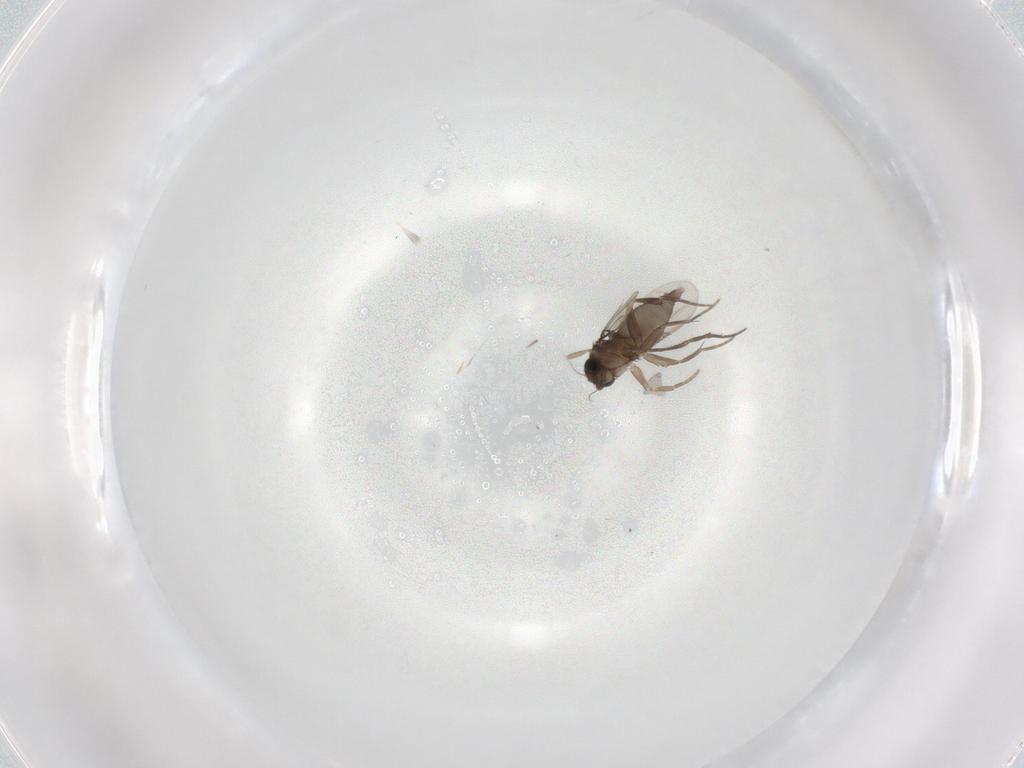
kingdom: Animalia
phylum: Arthropoda
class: Insecta
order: Diptera
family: Phoridae
